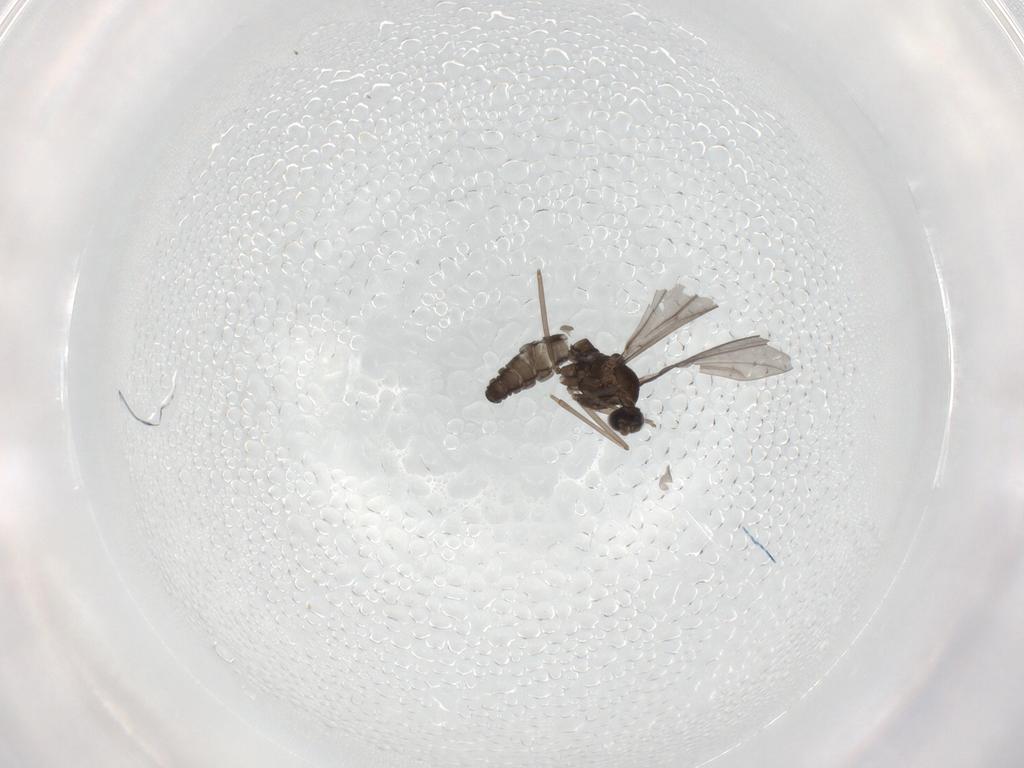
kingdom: Animalia
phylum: Arthropoda
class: Insecta
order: Diptera
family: Cecidomyiidae
